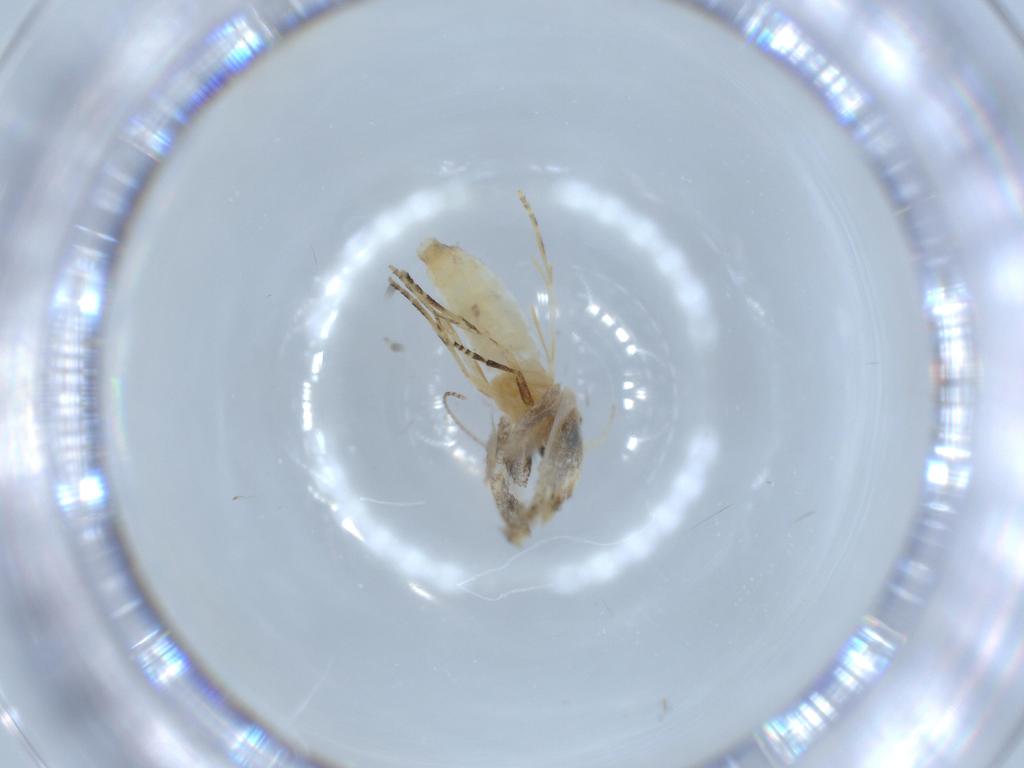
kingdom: Animalia
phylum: Arthropoda
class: Insecta
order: Lepidoptera
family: Bucculatricidae
